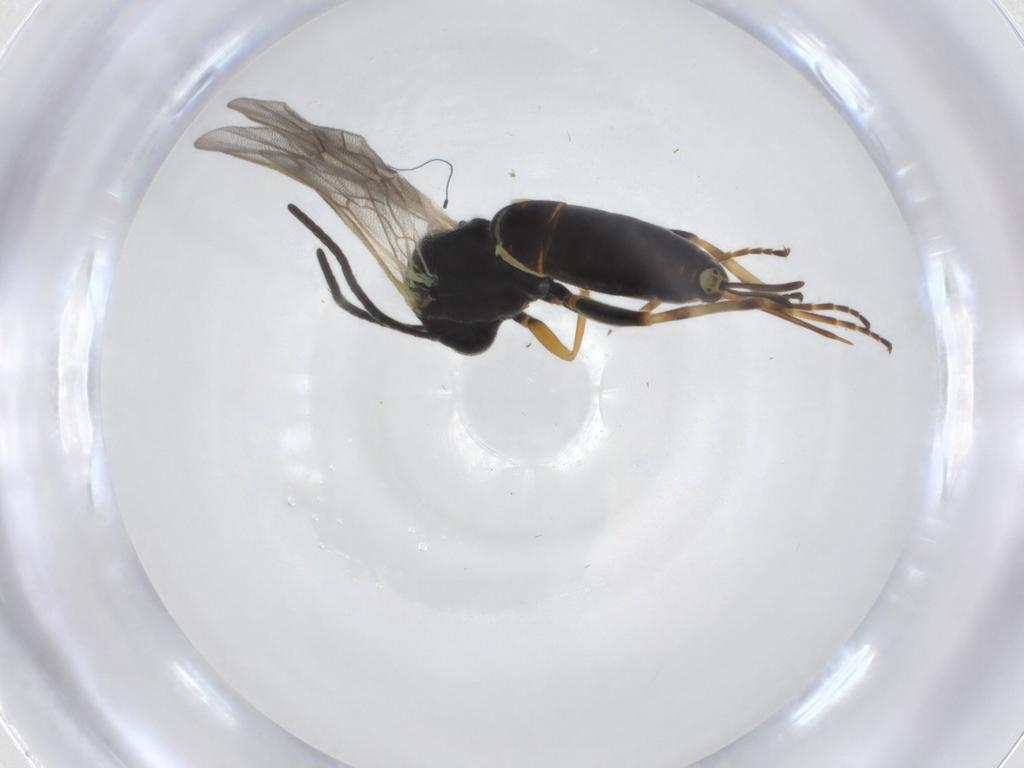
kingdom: Animalia
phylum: Arthropoda
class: Insecta
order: Hymenoptera
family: Ichneumonidae
